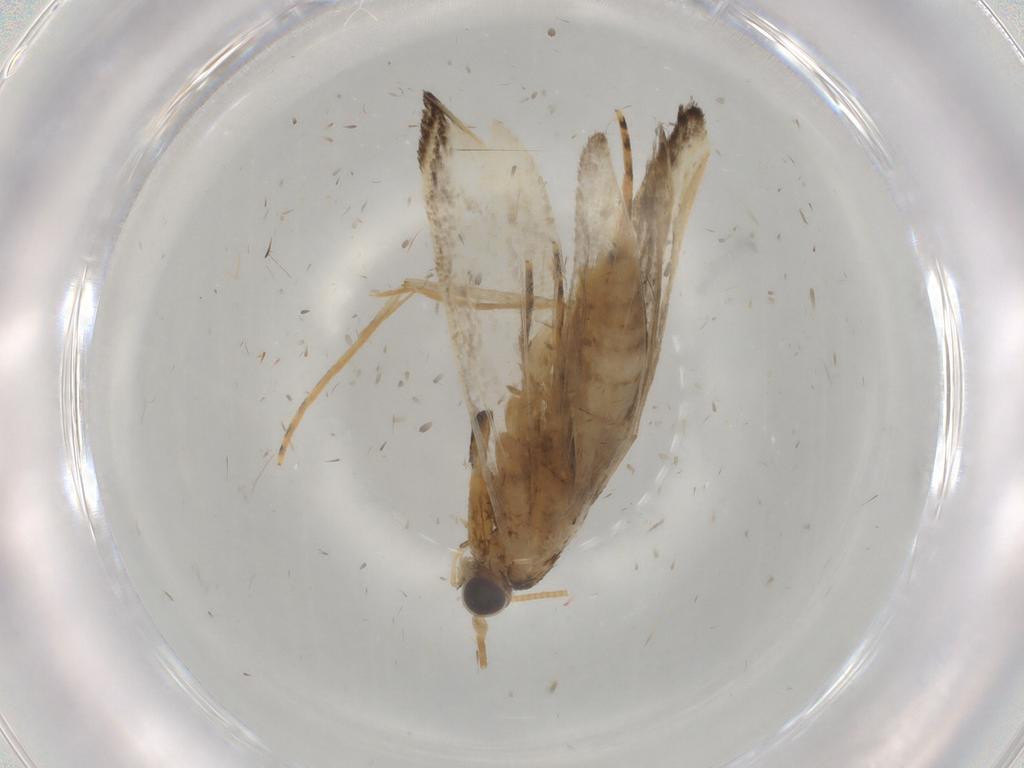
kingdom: Animalia
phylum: Arthropoda
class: Insecta
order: Lepidoptera
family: Tineidae
